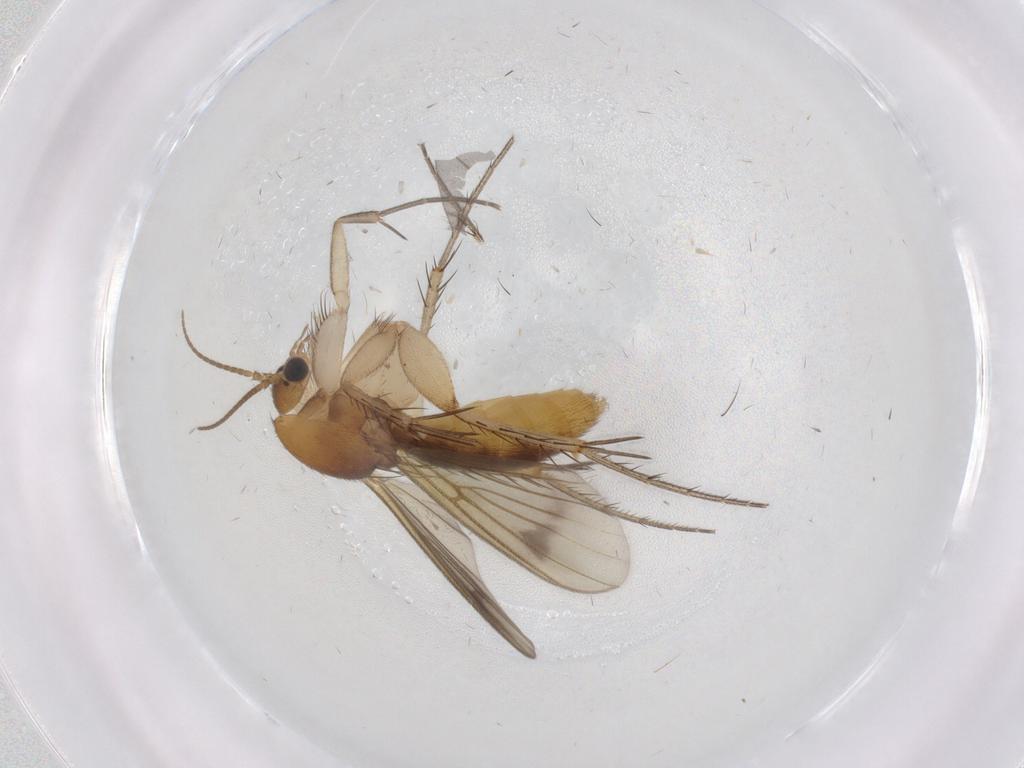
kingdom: Animalia
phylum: Arthropoda
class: Insecta
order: Diptera
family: Mycetophilidae
